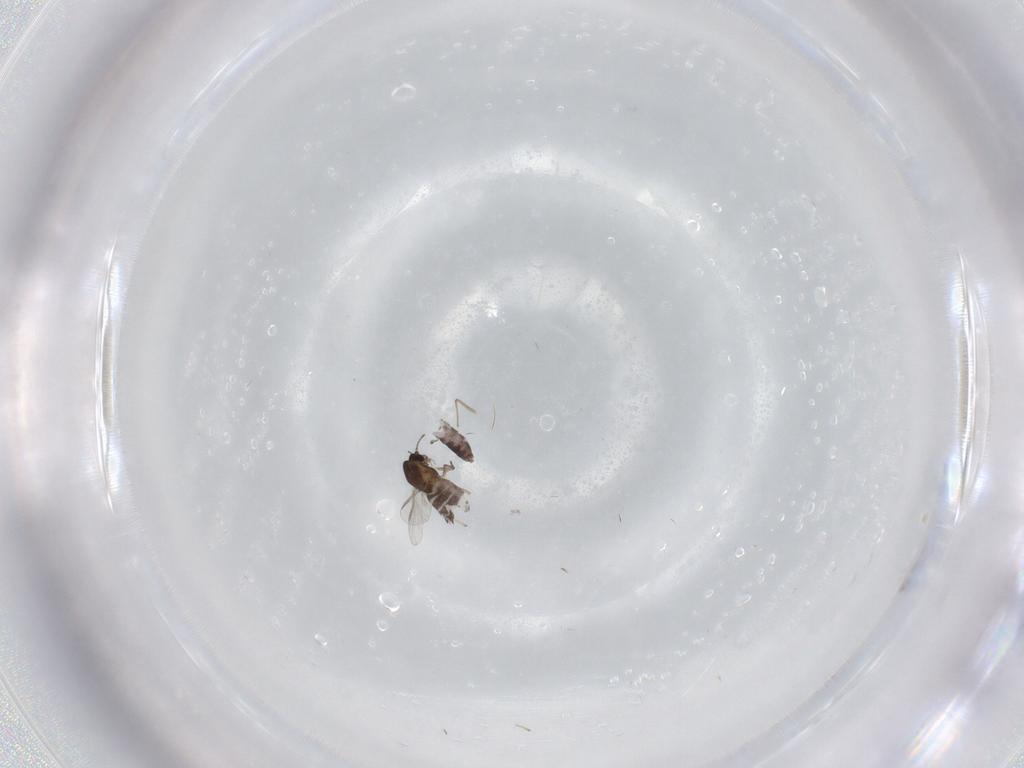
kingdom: Animalia
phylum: Arthropoda
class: Insecta
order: Diptera
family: Chironomidae
